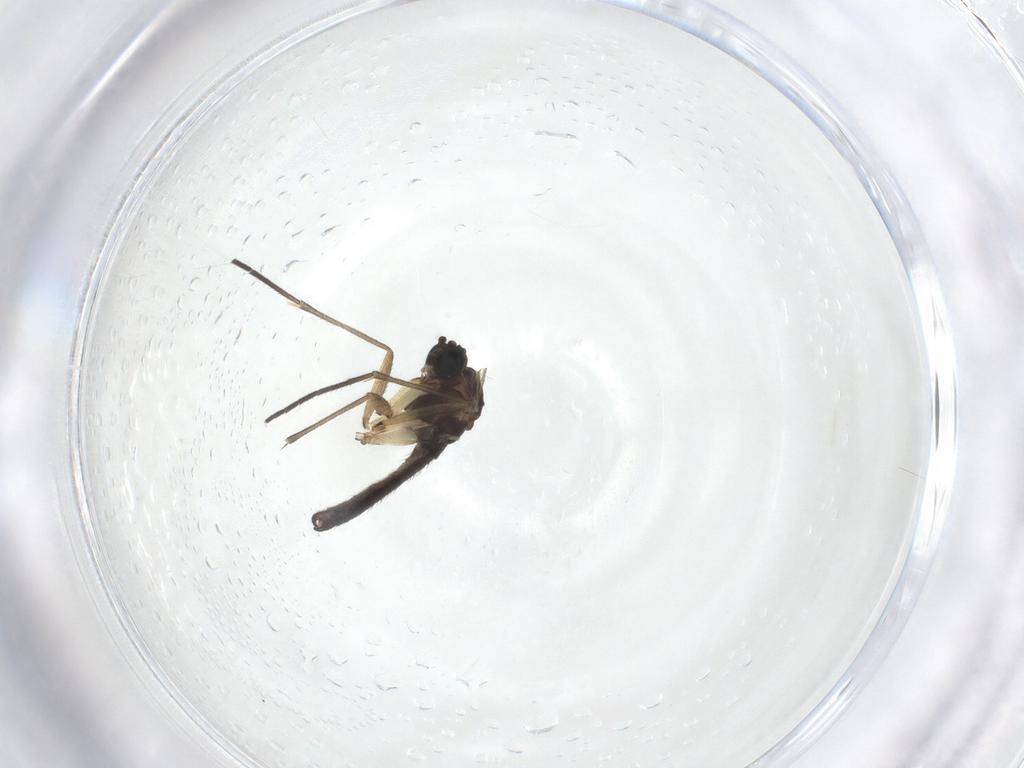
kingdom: Animalia
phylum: Arthropoda
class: Insecta
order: Diptera
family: Sciaridae
